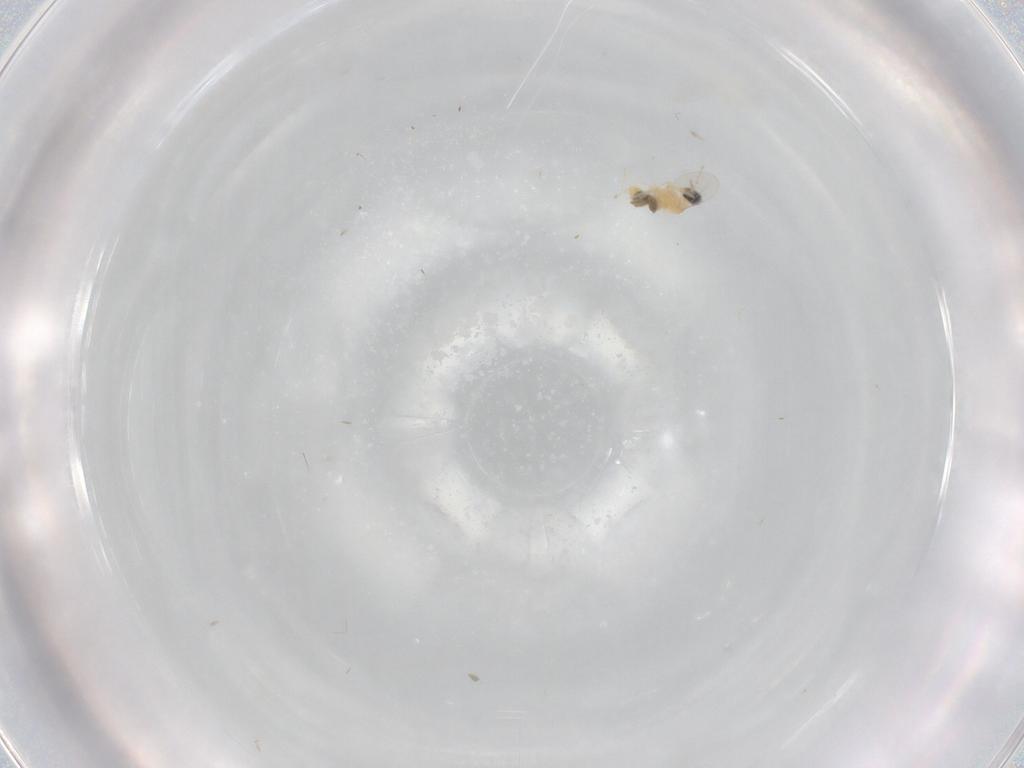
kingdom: Animalia
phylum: Arthropoda
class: Insecta
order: Diptera
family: Cecidomyiidae
